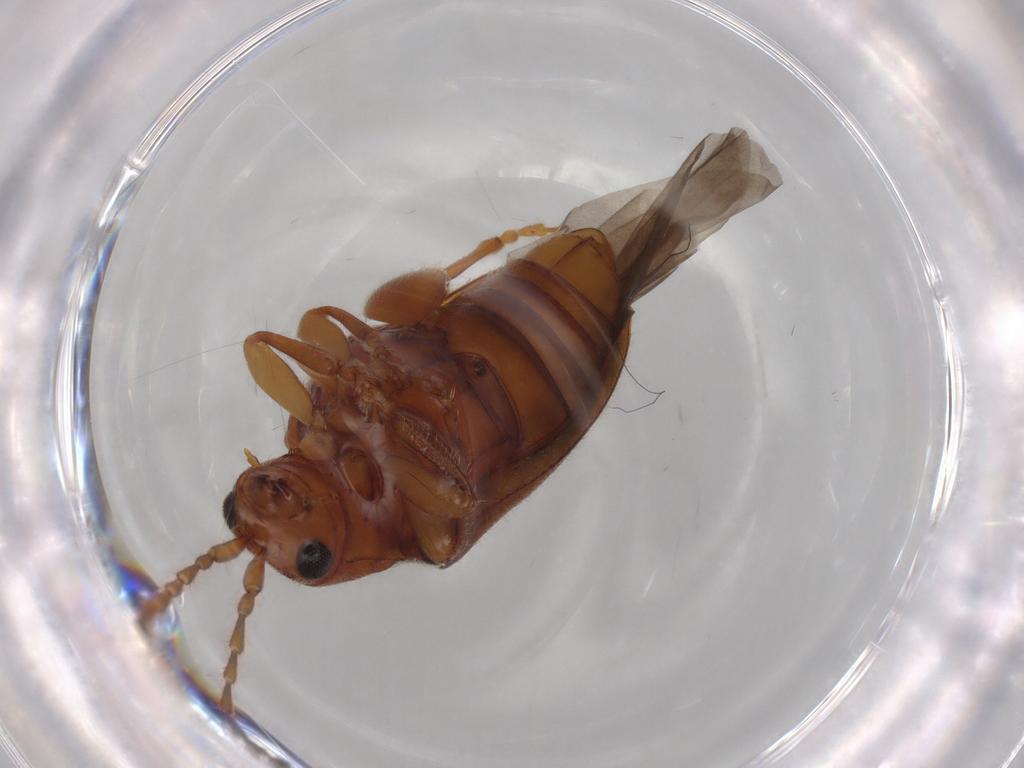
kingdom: Animalia
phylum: Arthropoda
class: Insecta
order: Coleoptera
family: Chrysomelidae
